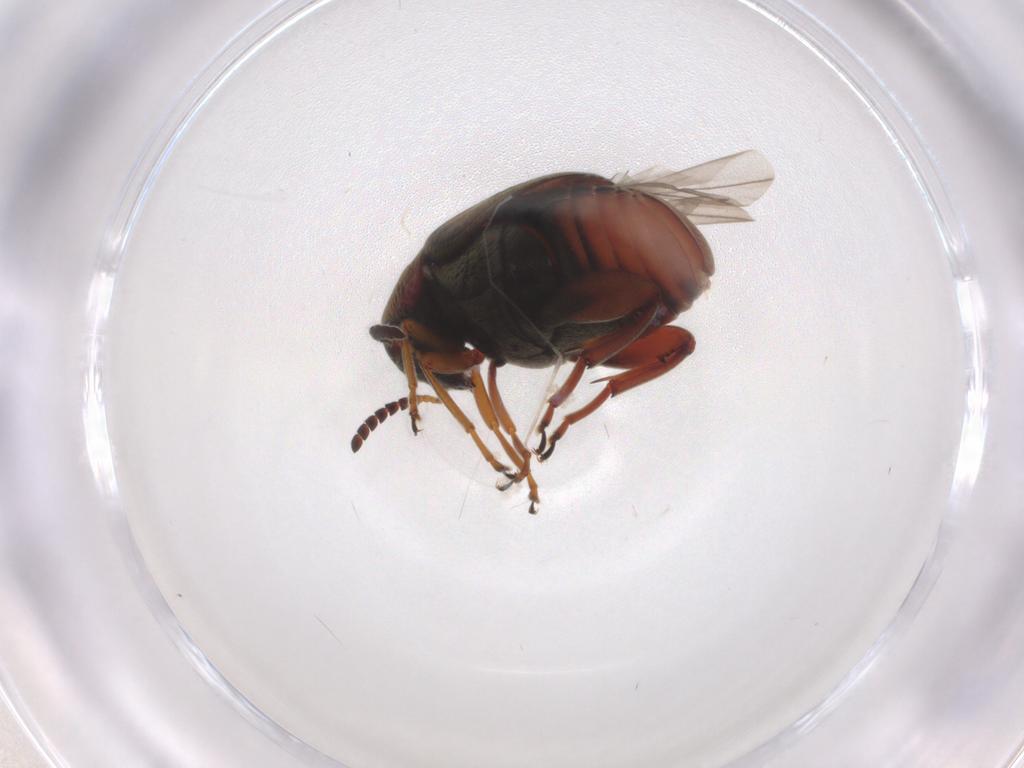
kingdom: Animalia
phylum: Arthropoda
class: Insecta
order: Coleoptera
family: Chrysomelidae
